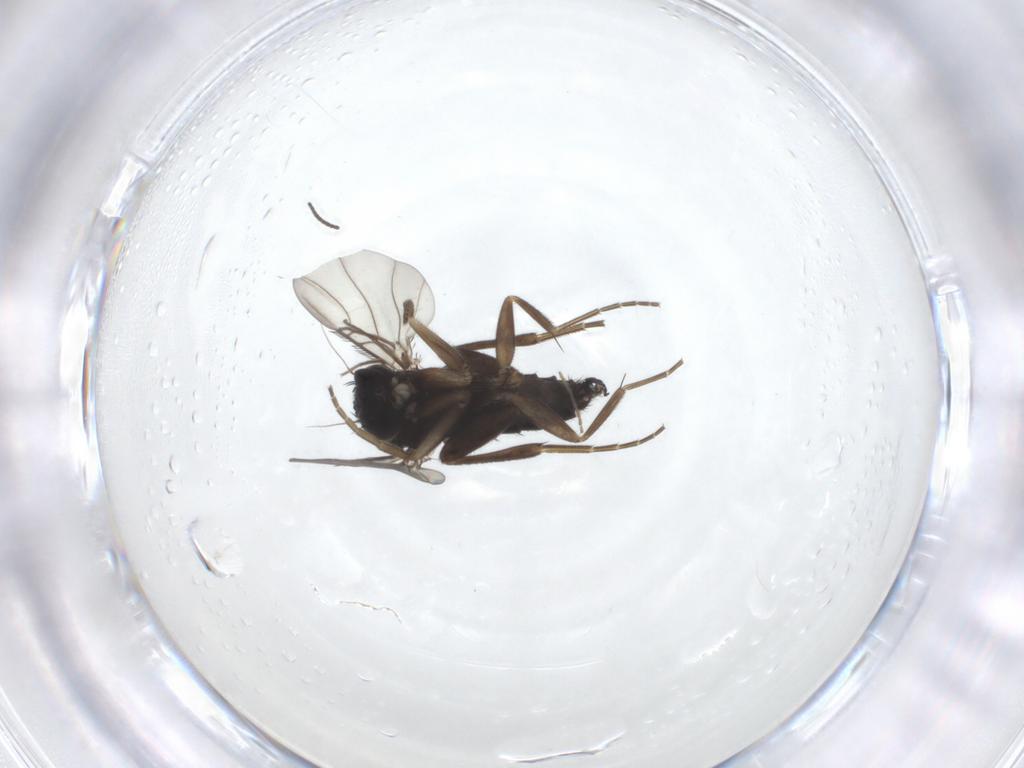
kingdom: Animalia
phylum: Arthropoda
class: Insecta
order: Diptera
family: Phoridae
